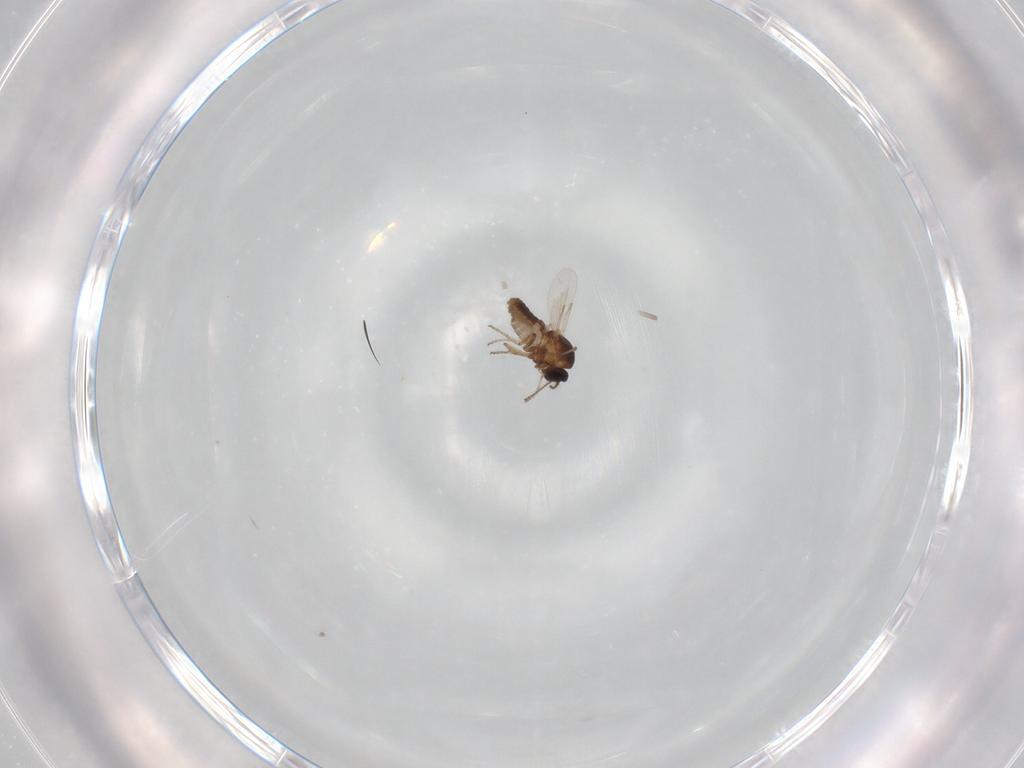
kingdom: Animalia
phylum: Arthropoda
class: Insecta
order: Diptera
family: Ceratopogonidae
